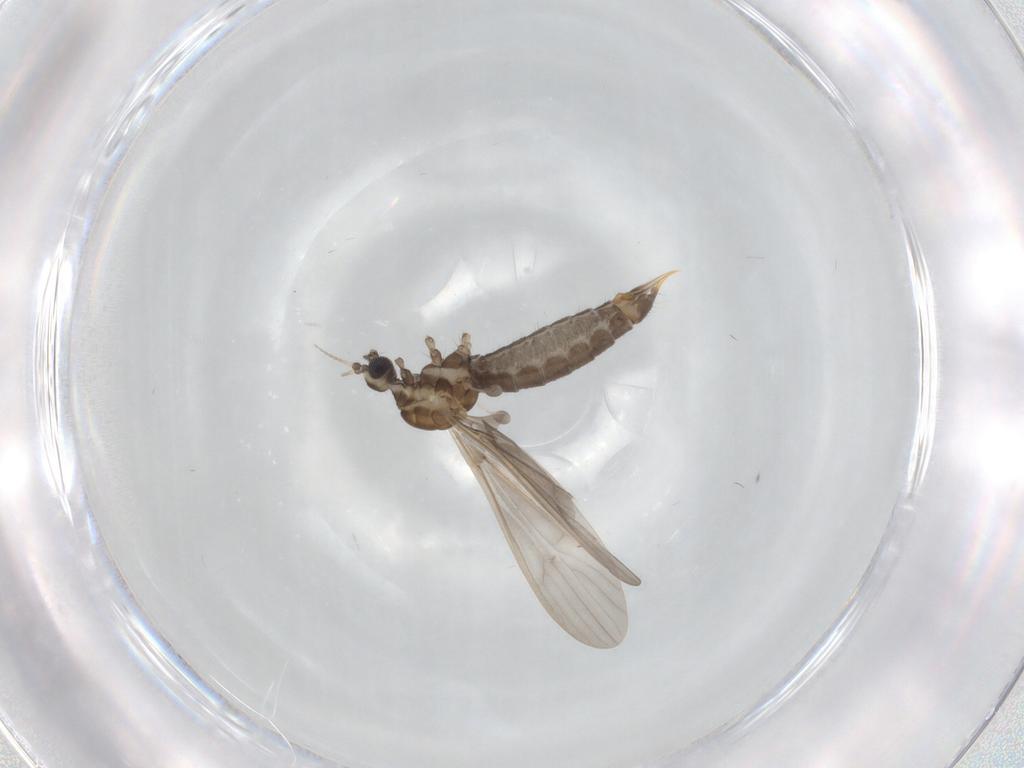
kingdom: Animalia
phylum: Arthropoda
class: Insecta
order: Diptera
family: Limoniidae
